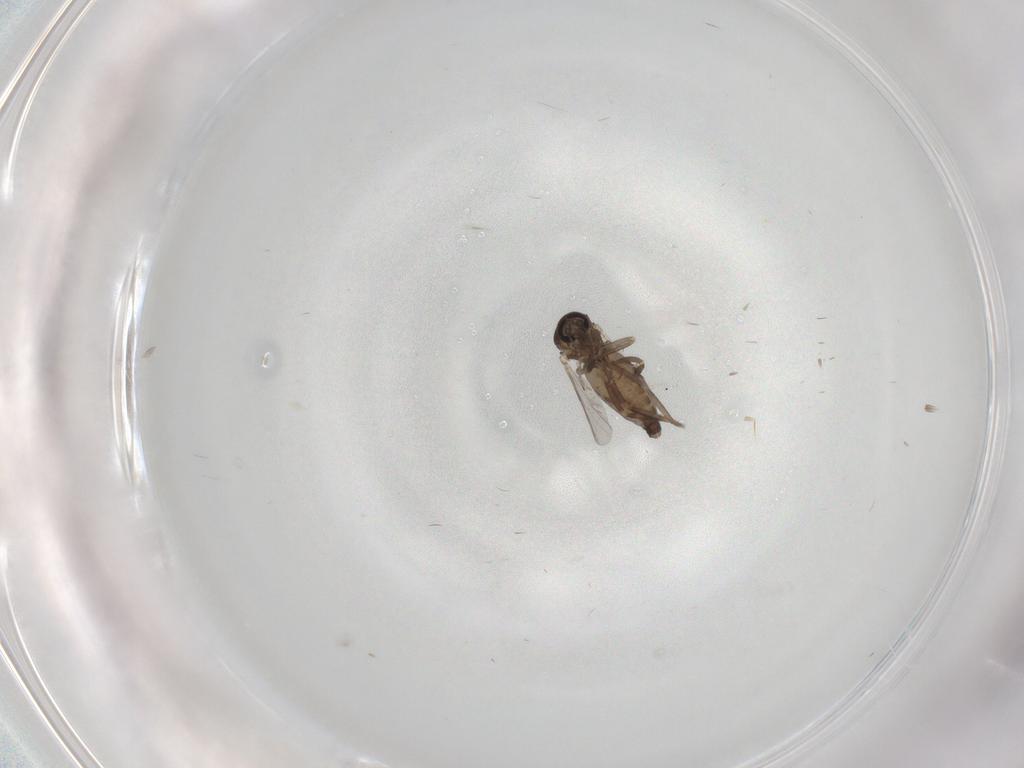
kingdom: Animalia
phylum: Arthropoda
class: Insecta
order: Diptera
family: Ceratopogonidae
